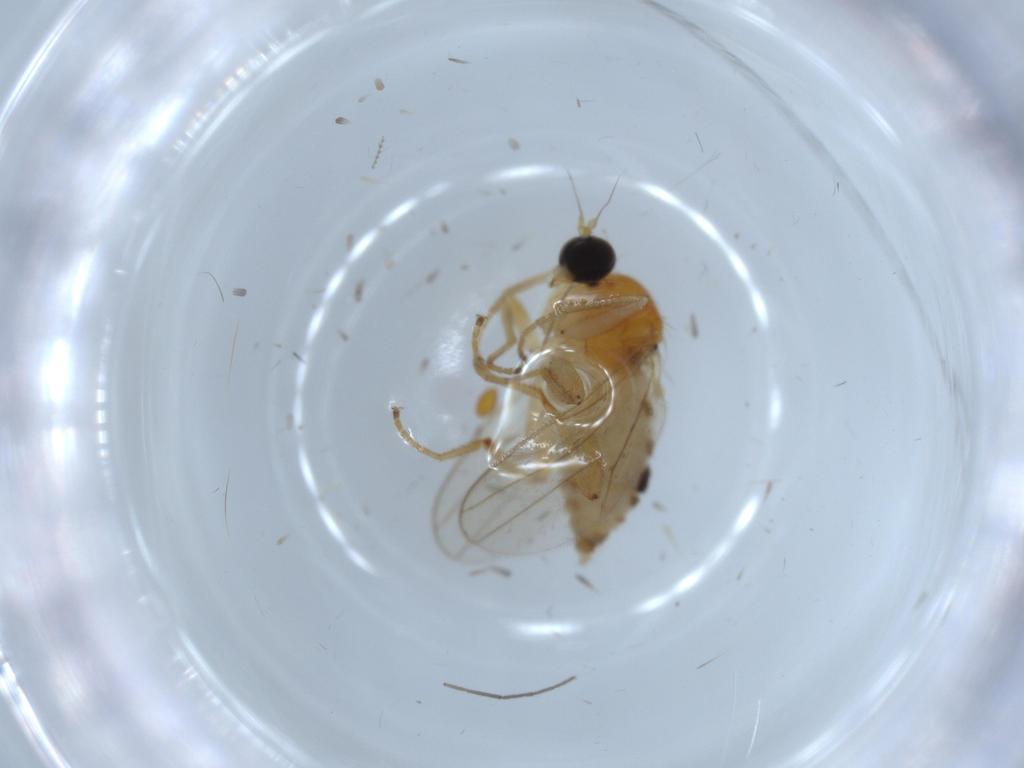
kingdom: Animalia
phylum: Arthropoda
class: Insecta
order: Diptera
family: Hybotidae
